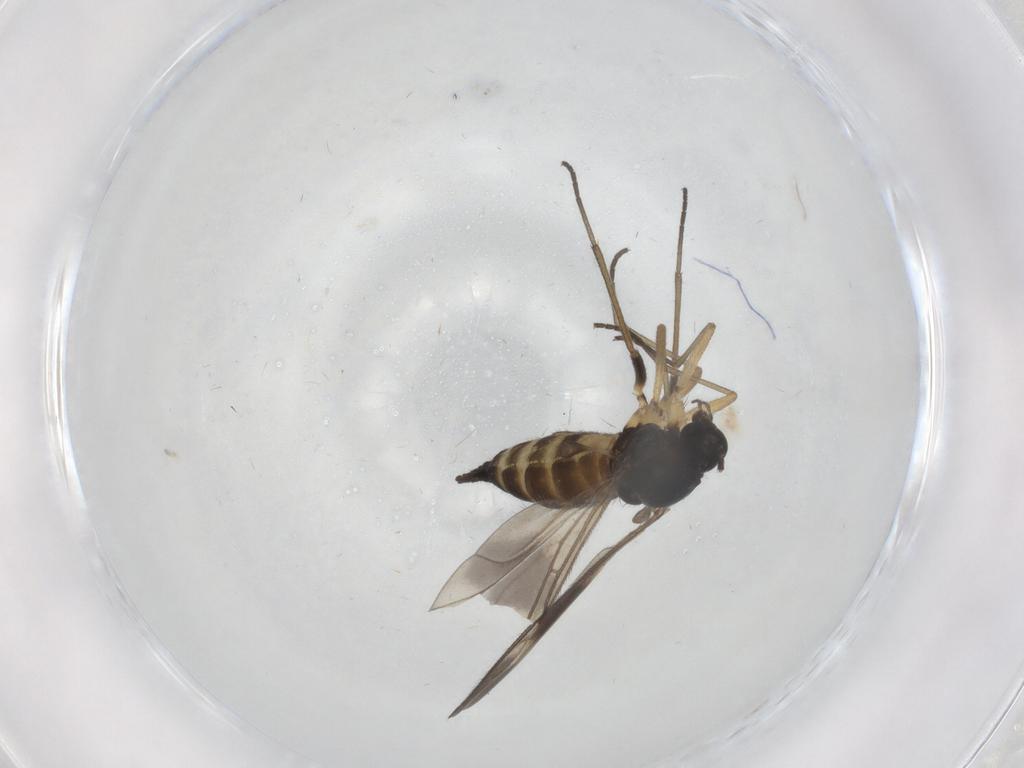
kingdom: Animalia
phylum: Arthropoda
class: Insecta
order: Diptera
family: Sciaridae
